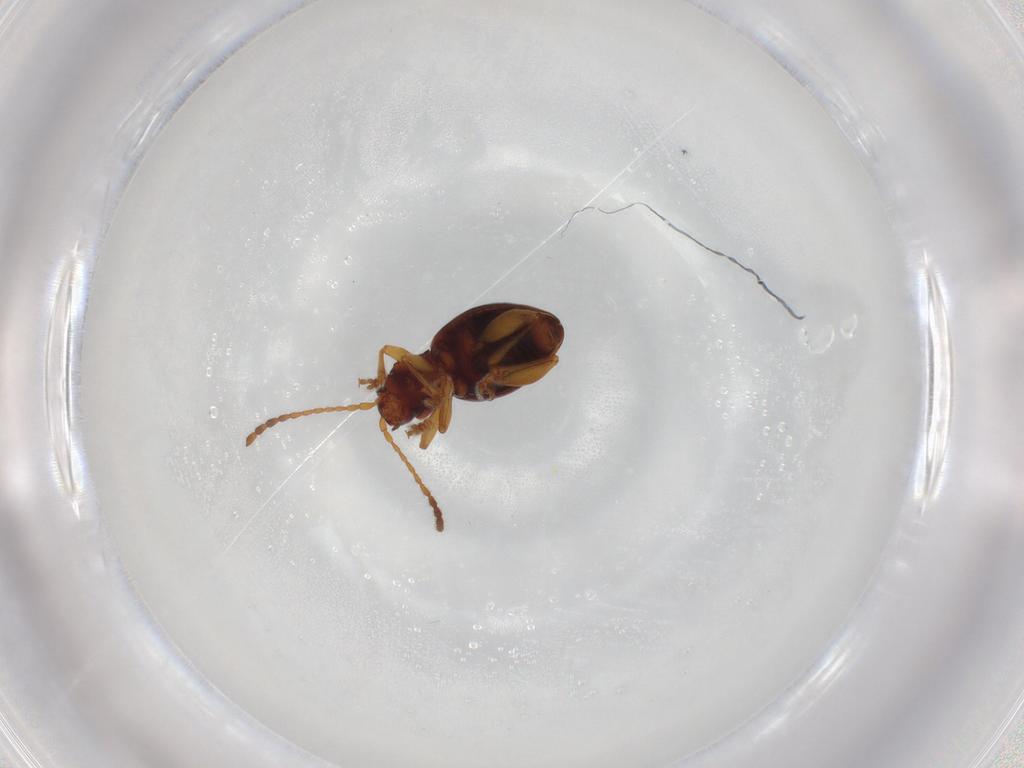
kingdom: Animalia
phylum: Arthropoda
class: Insecta
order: Coleoptera
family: Chrysomelidae
